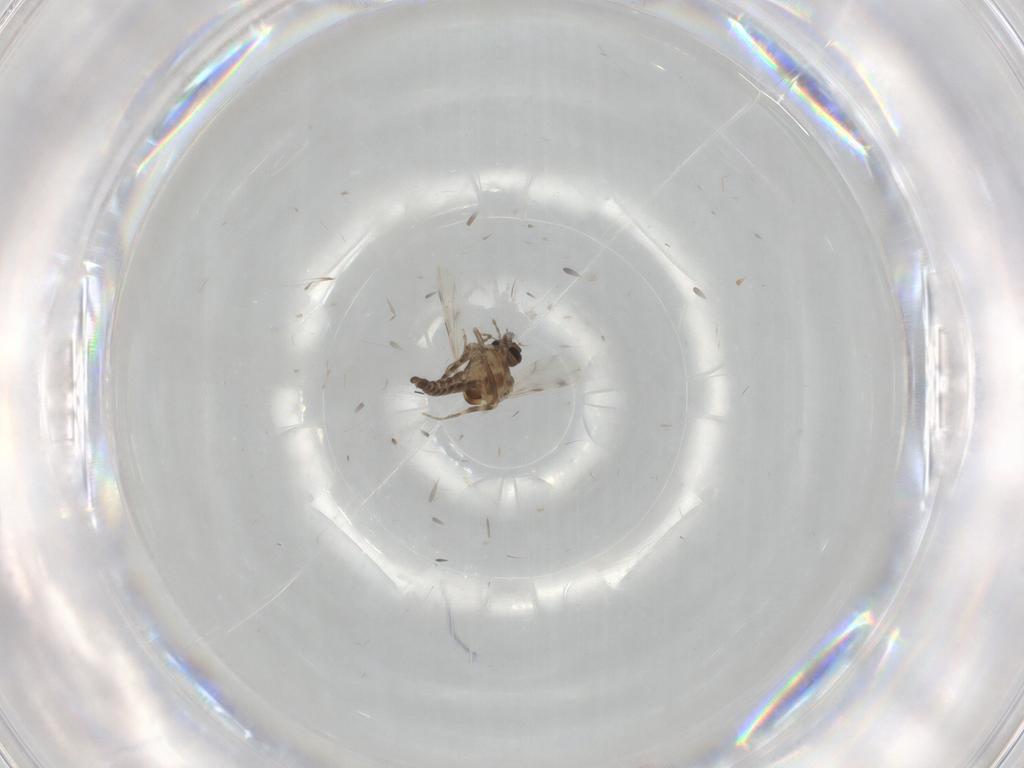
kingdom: Animalia
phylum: Arthropoda
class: Insecta
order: Diptera
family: Ceratopogonidae
